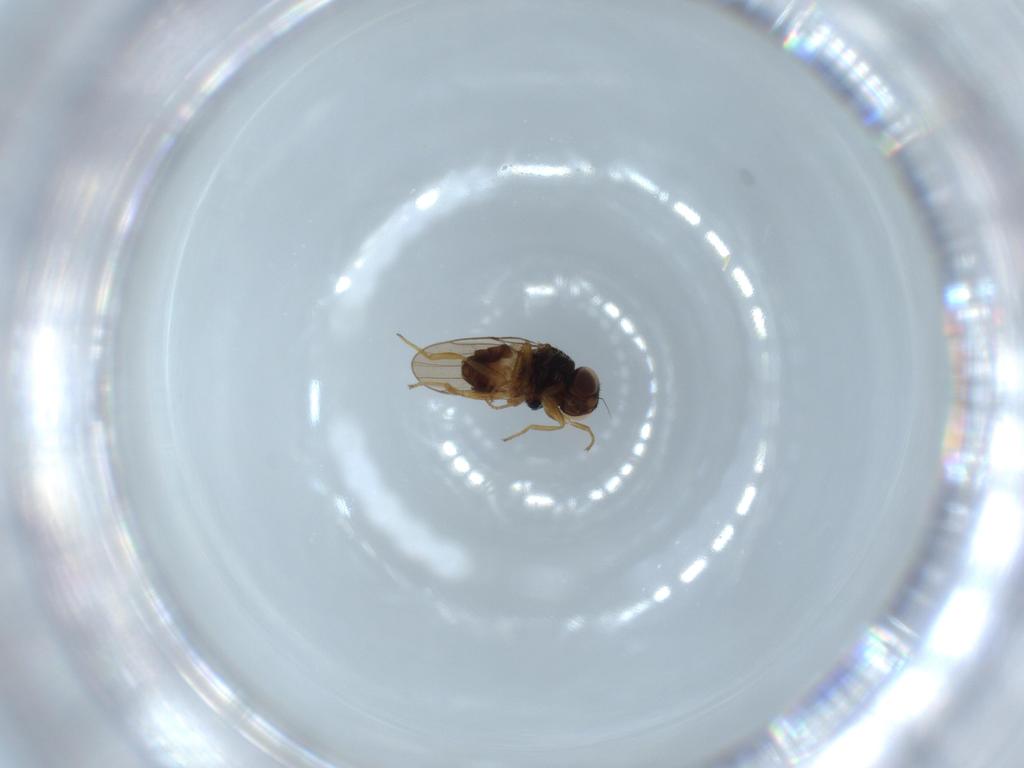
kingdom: Animalia
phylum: Arthropoda
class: Insecta
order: Diptera
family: Chloropidae
